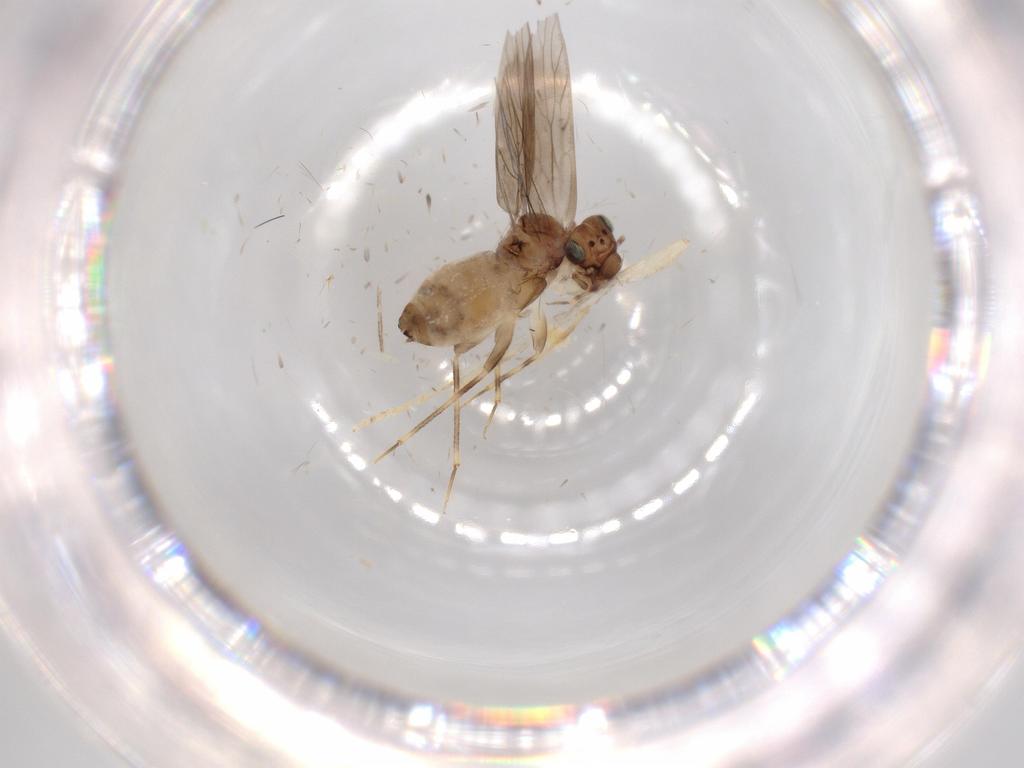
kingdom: Animalia
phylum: Arthropoda
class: Insecta
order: Psocodea
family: Lepidopsocidae
